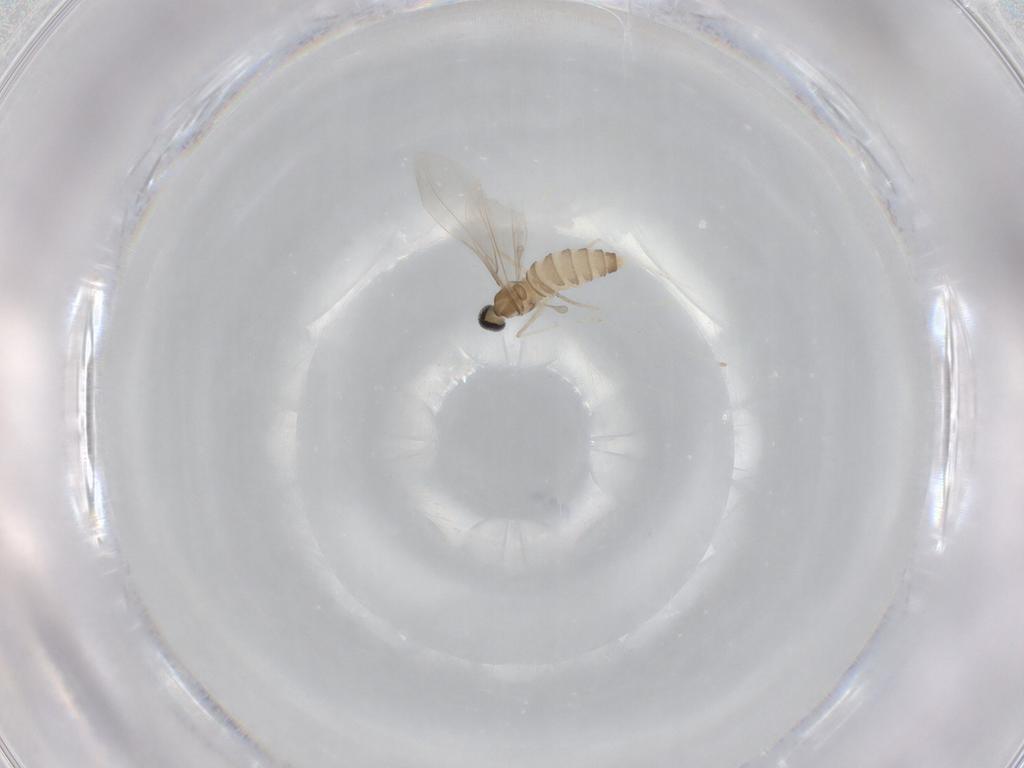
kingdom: Animalia
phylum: Arthropoda
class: Insecta
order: Diptera
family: Cecidomyiidae
